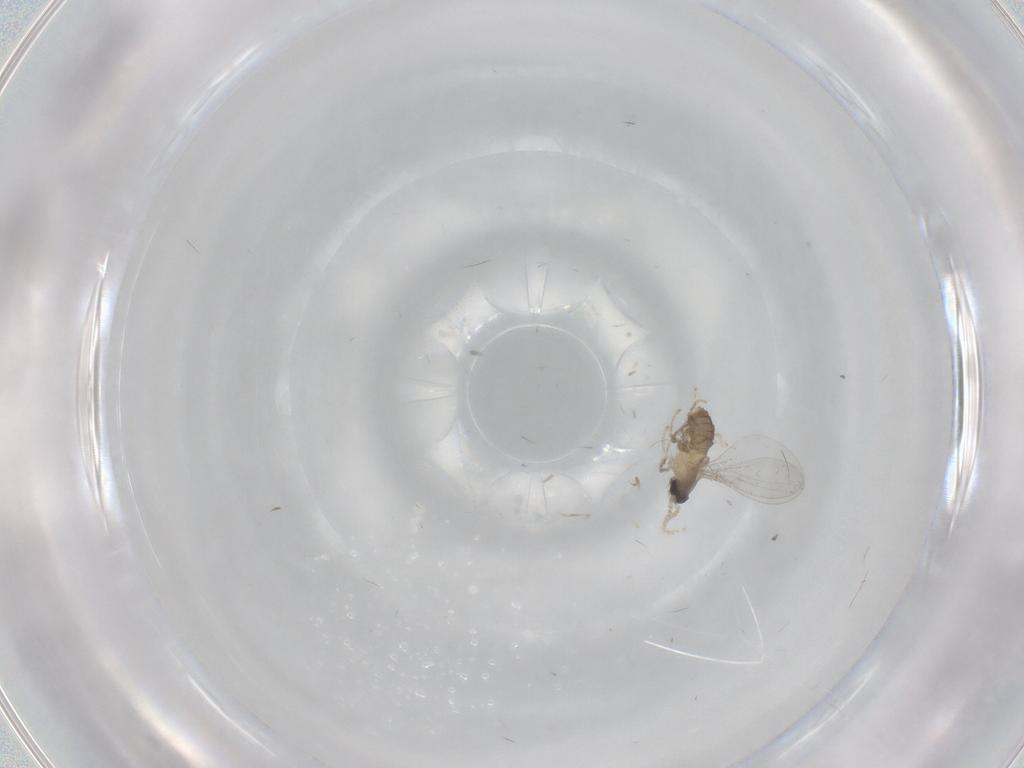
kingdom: Animalia
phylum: Arthropoda
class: Insecta
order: Diptera
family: Cecidomyiidae
